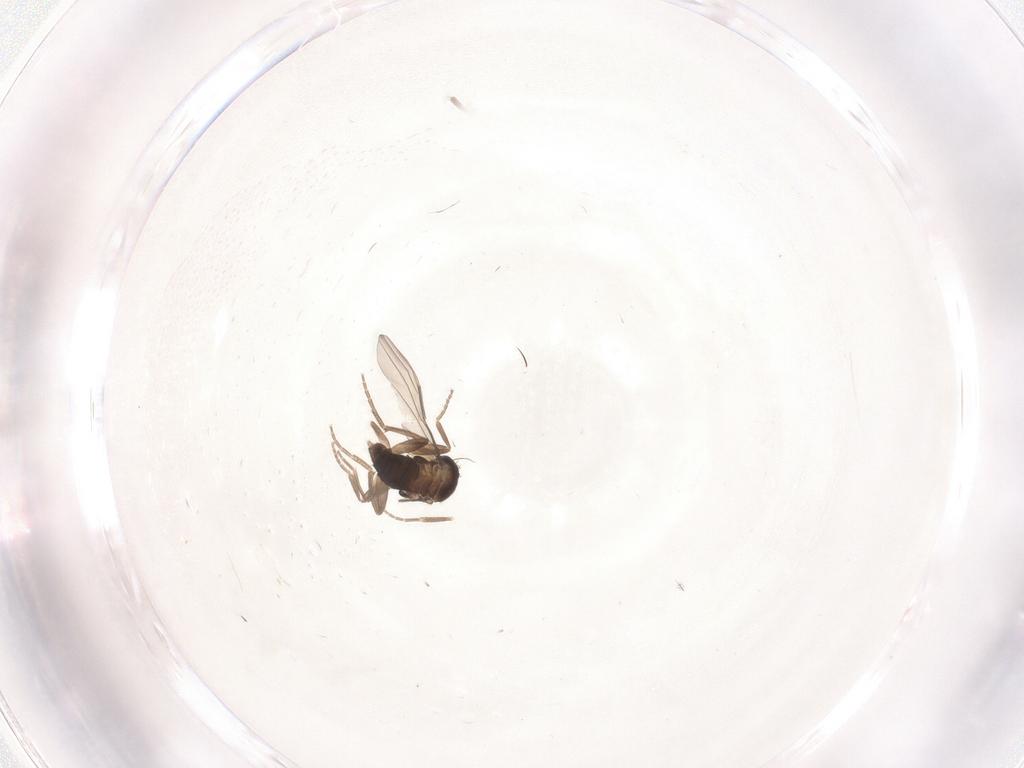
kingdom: Animalia
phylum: Arthropoda
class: Insecta
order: Diptera
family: Phoridae
